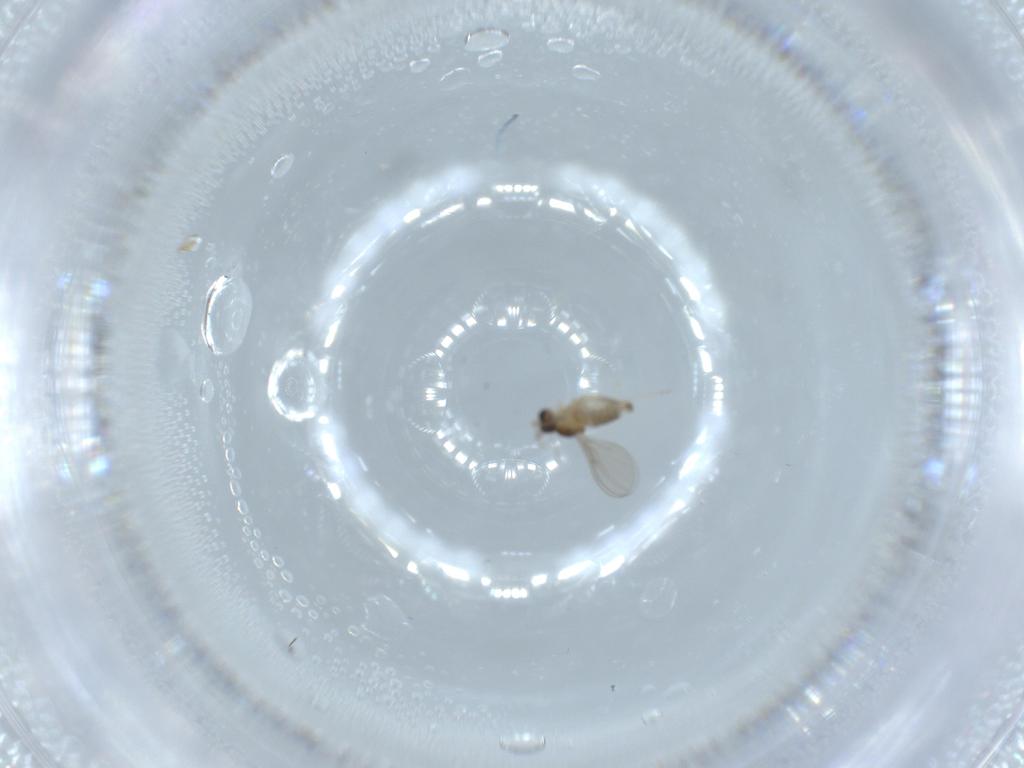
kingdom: Animalia
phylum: Arthropoda
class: Insecta
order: Diptera
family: Cecidomyiidae
